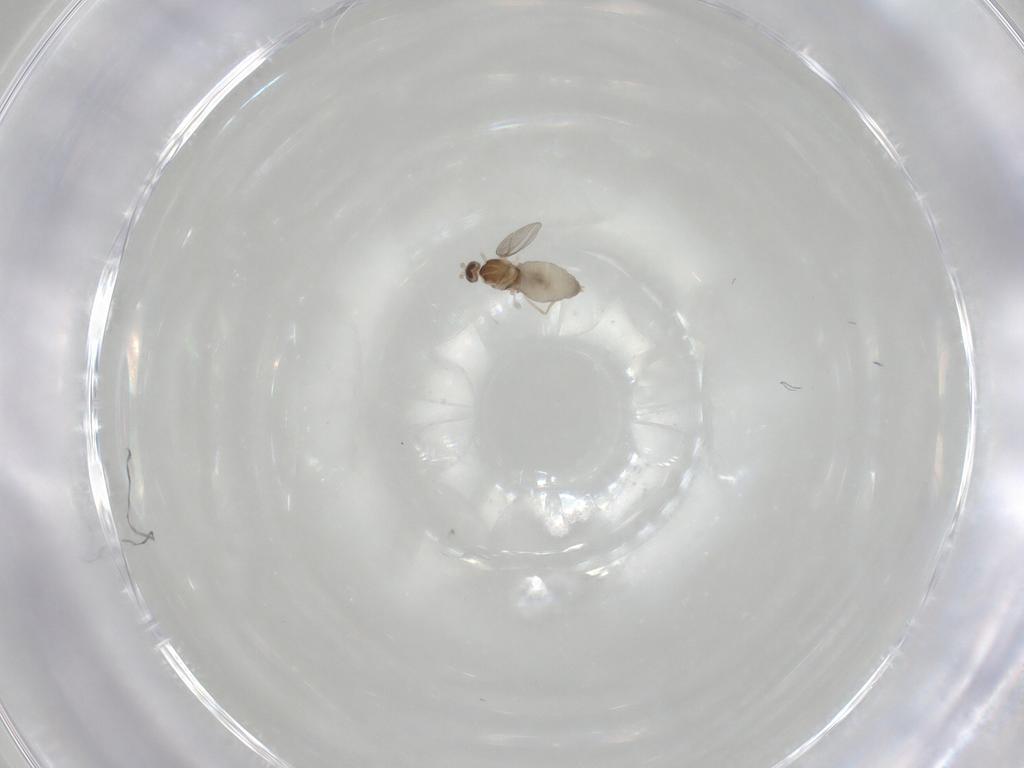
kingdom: Animalia
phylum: Arthropoda
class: Insecta
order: Diptera
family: Cecidomyiidae
